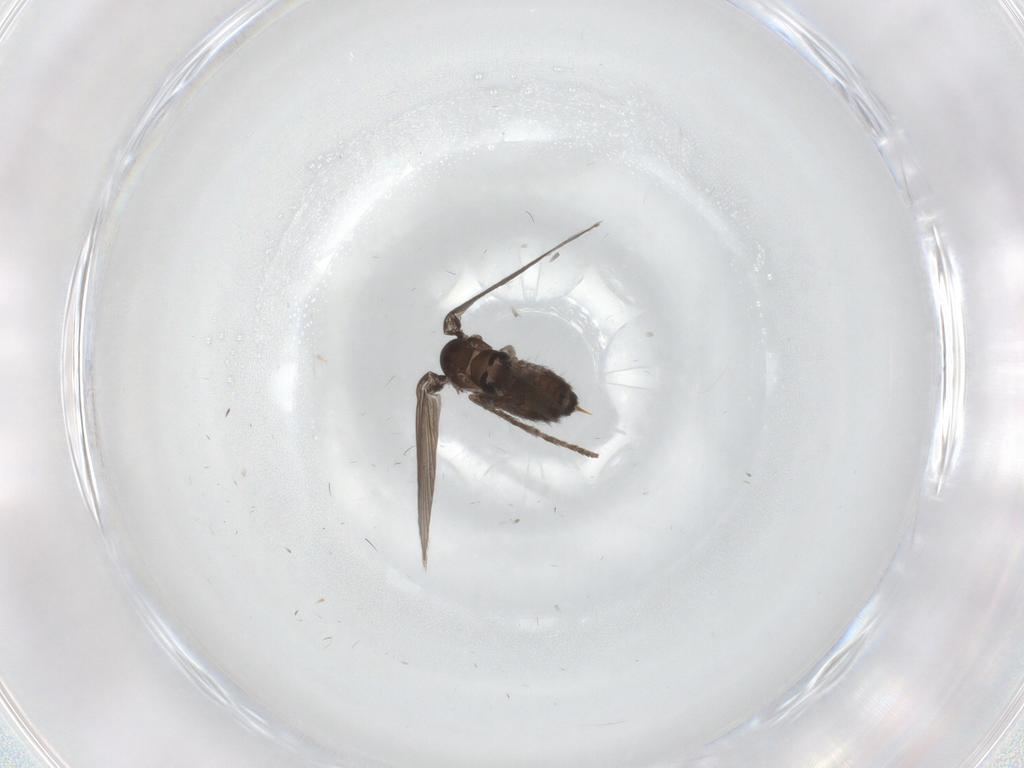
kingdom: Animalia
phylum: Arthropoda
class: Insecta
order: Diptera
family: Psychodidae
